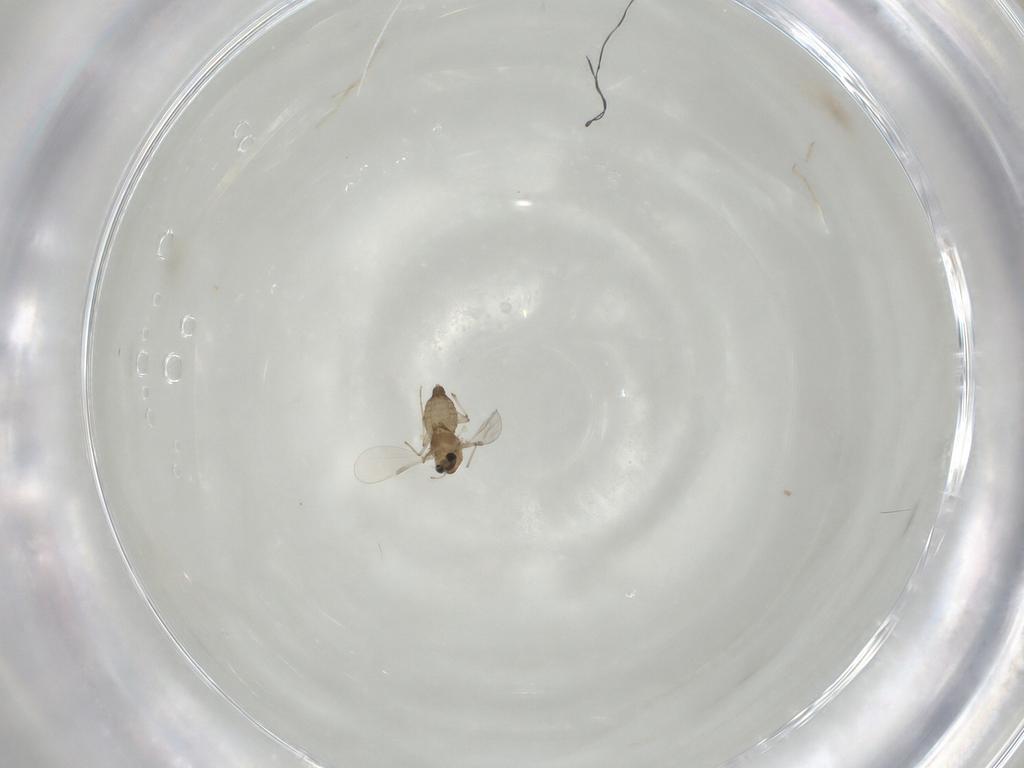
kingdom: Animalia
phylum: Arthropoda
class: Insecta
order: Diptera
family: Chironomidae
